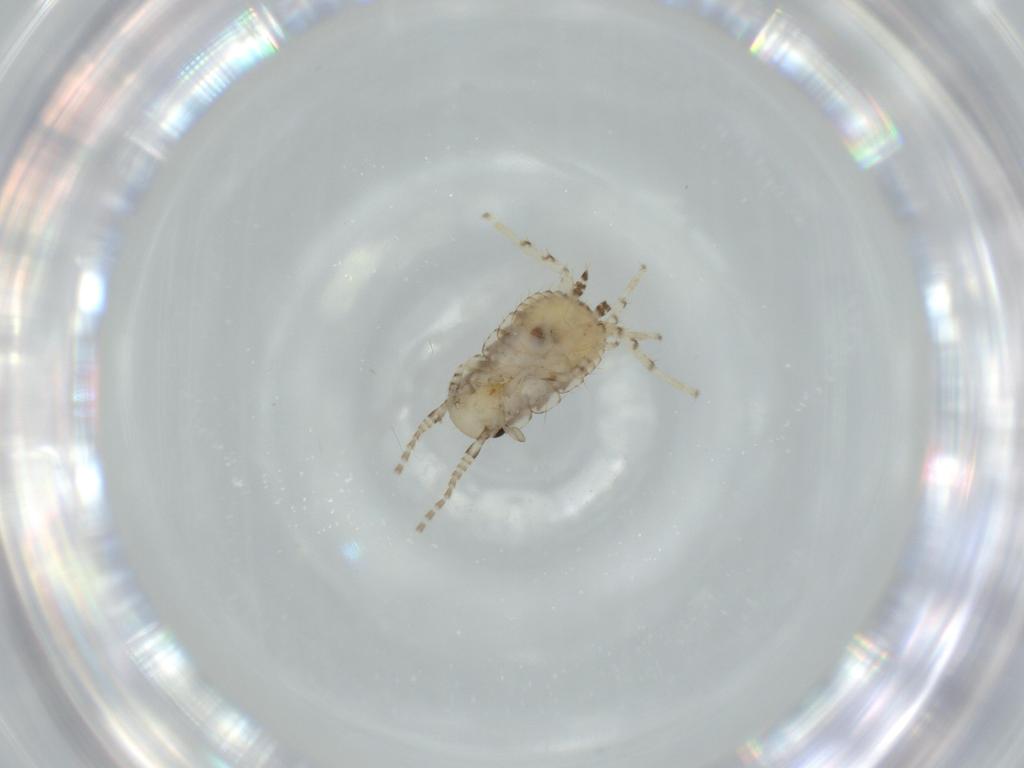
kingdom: Animalia
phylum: Arthropoda
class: Insecta
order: Blattodea
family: Ectobiidae
